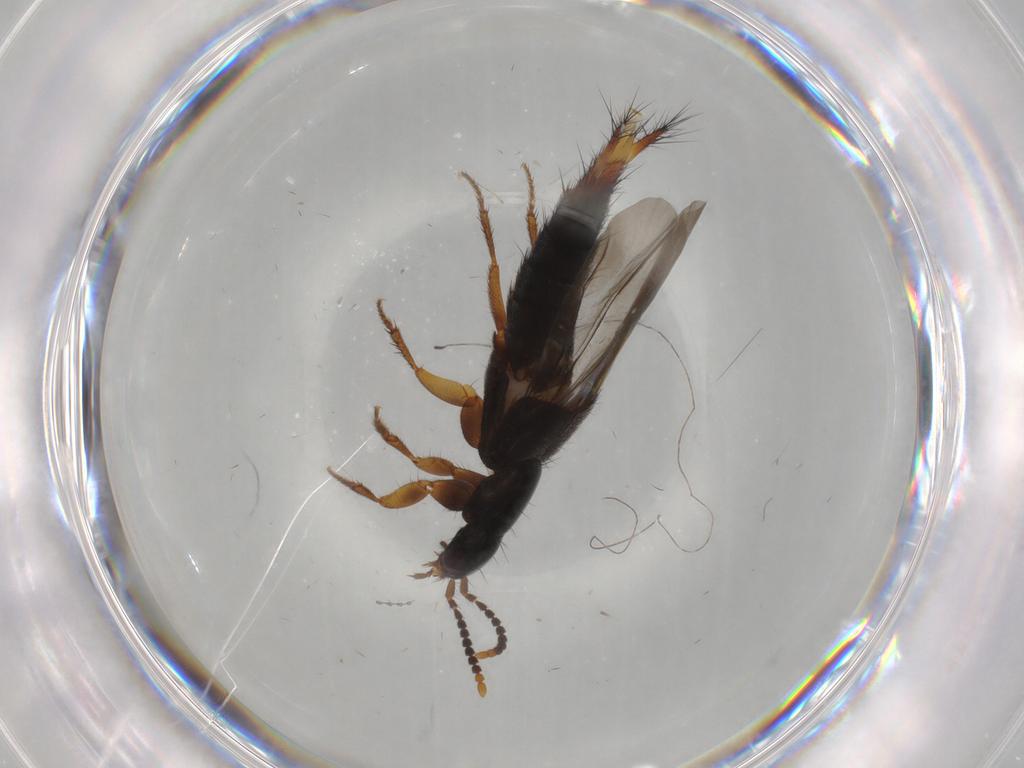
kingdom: Animalia
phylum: Arthropoda
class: Insecta
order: Coleoptera
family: Staphylinidae
